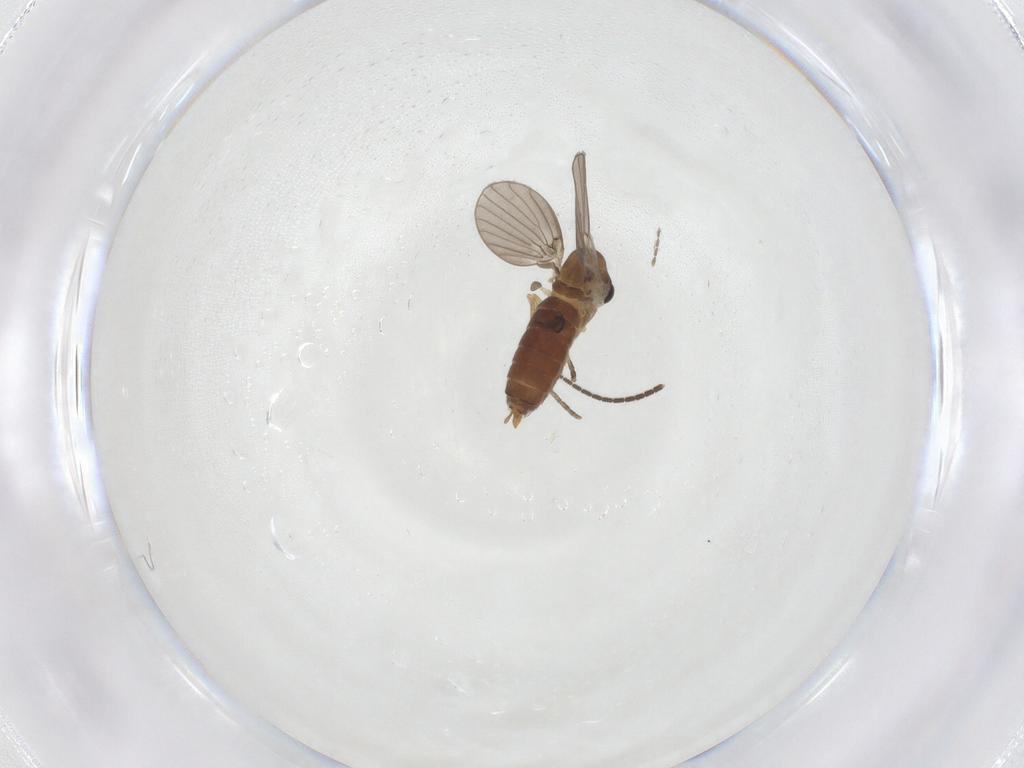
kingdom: Animalia
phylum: Arthropoda
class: Insecta
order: Diptera
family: Sciaridae
